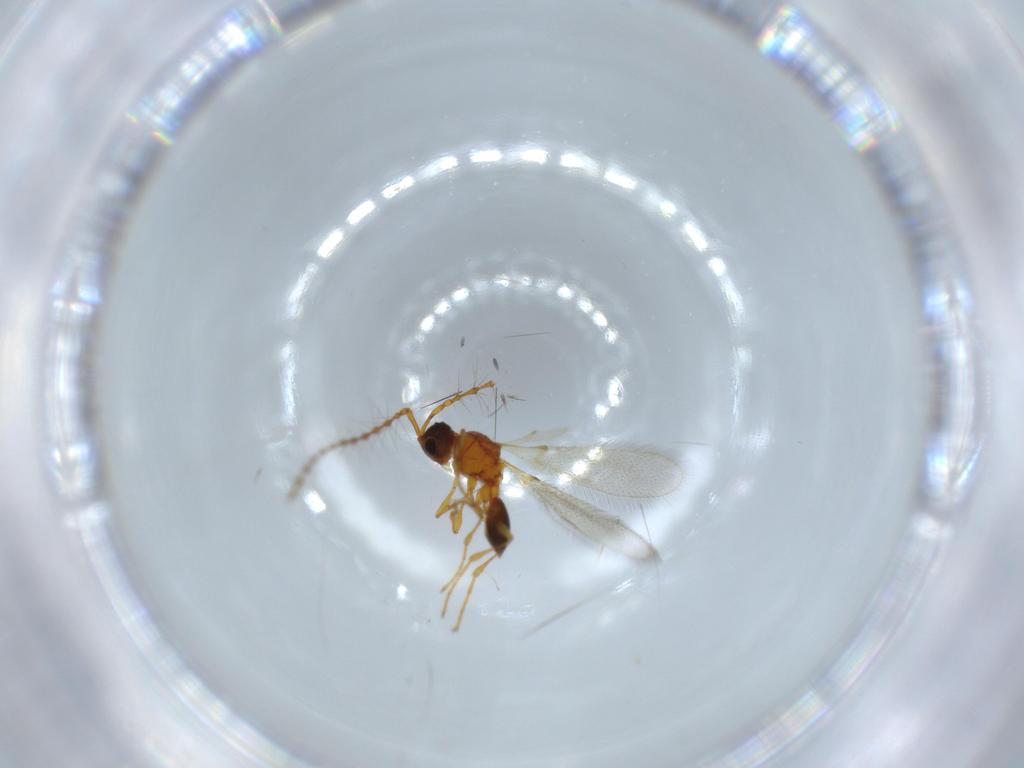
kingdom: Animalia
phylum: Arthropoda
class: Insecta
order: Hymenoptera
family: Diapriidae
